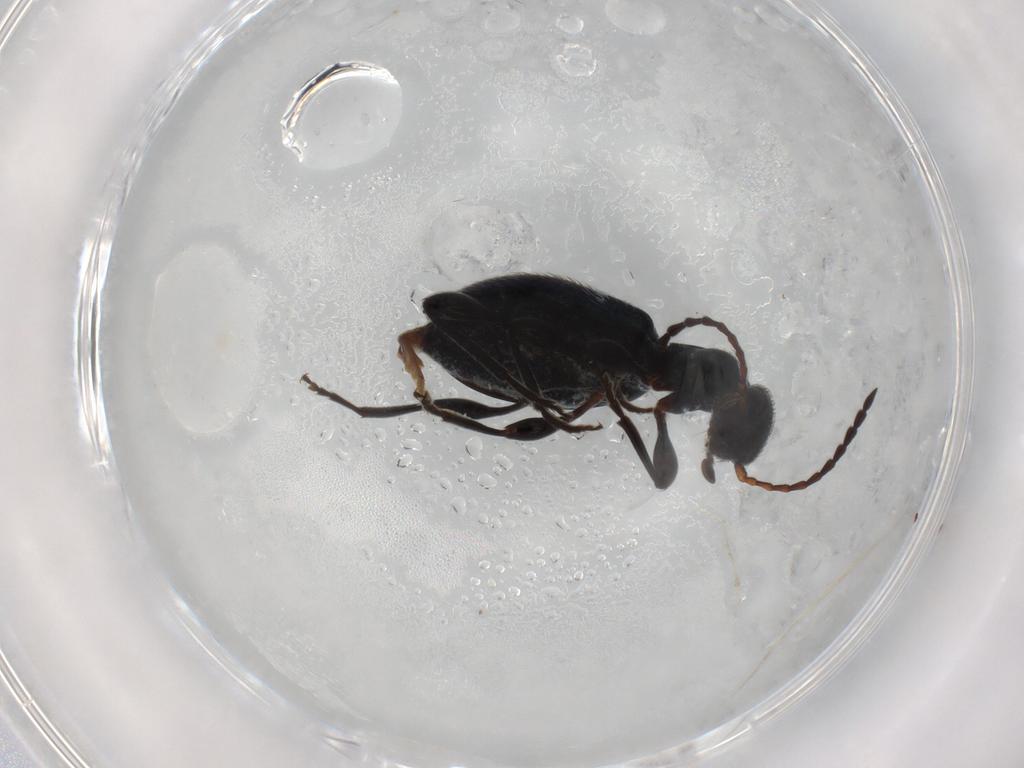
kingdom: Animalia
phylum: Arthropoda
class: Insecta
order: Coleoptera
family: Anthicidae
